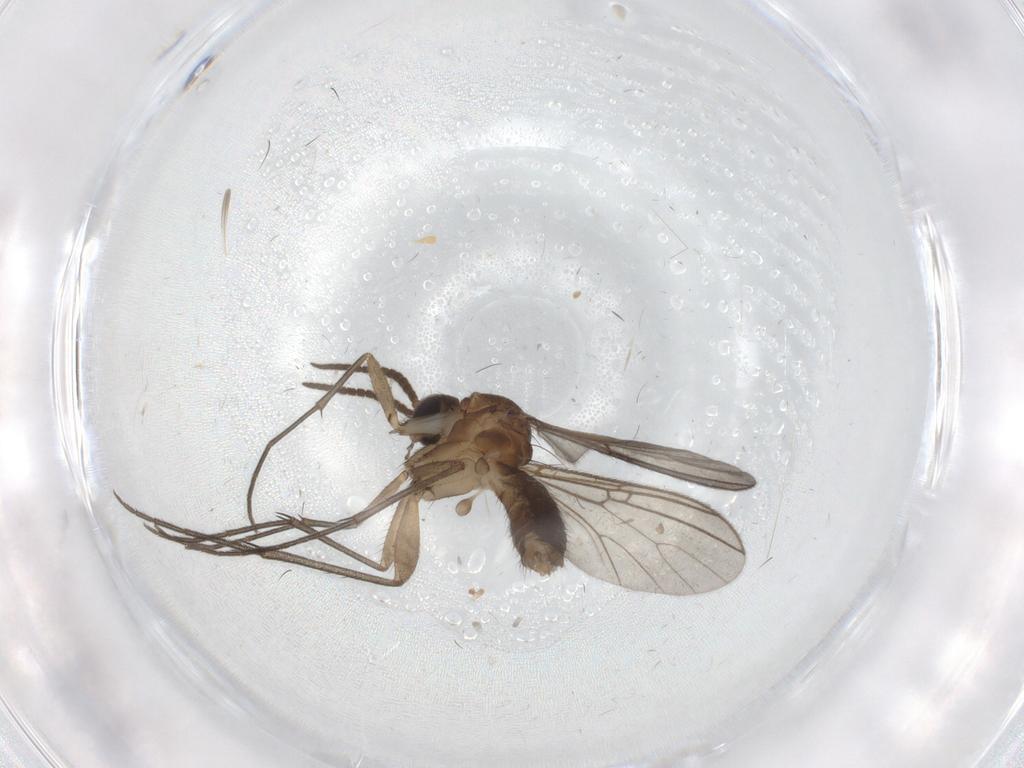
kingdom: Animalia
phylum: Arthropoda
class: Insecta
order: Diptera
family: Mycetophilidae
